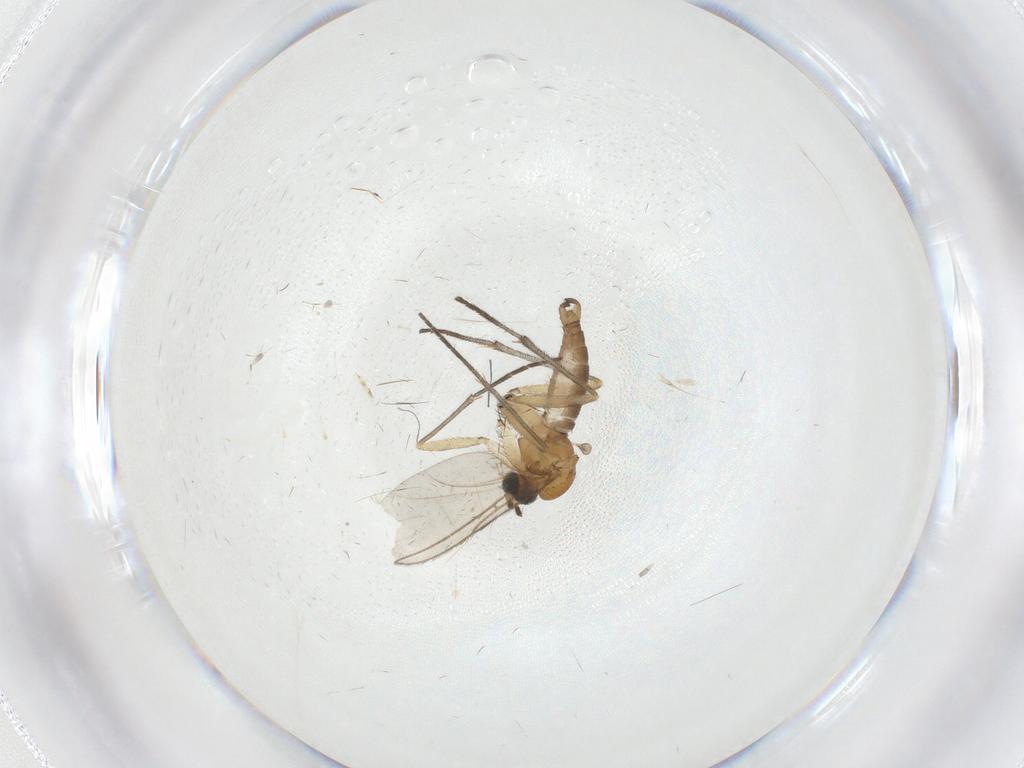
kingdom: Animalia
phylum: Arthropoda
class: Insecta
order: Diptera
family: Sciaridae
